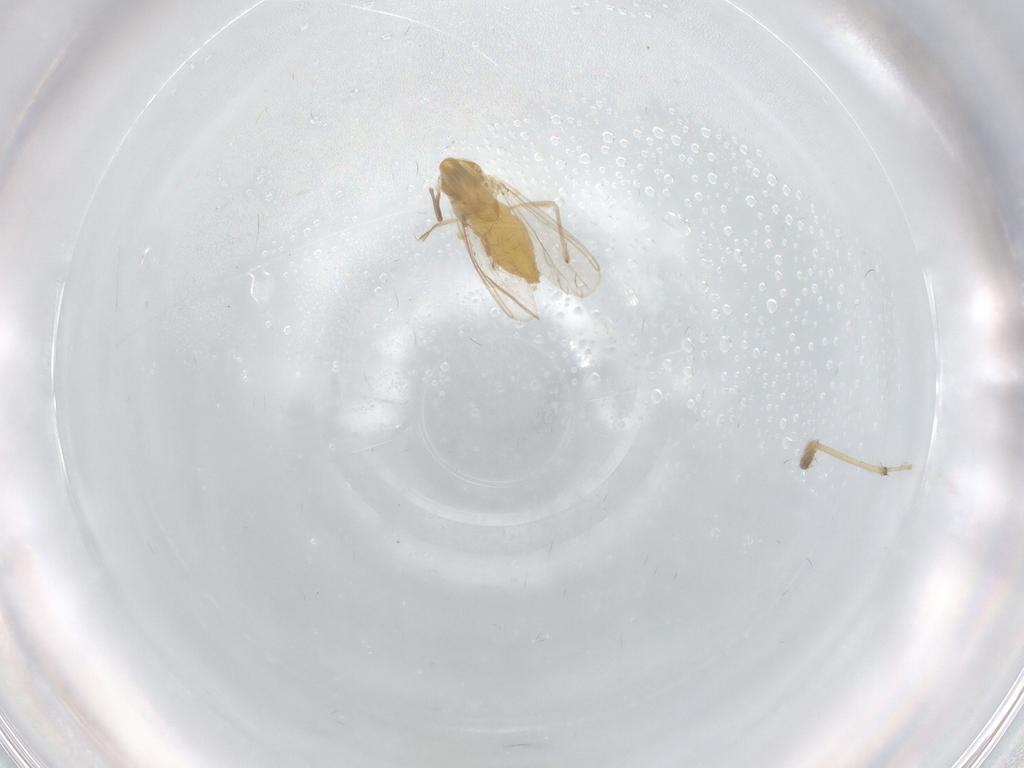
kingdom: Animalia
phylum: Arthropoda
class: Insecta
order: Diptera
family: Chironomidae
